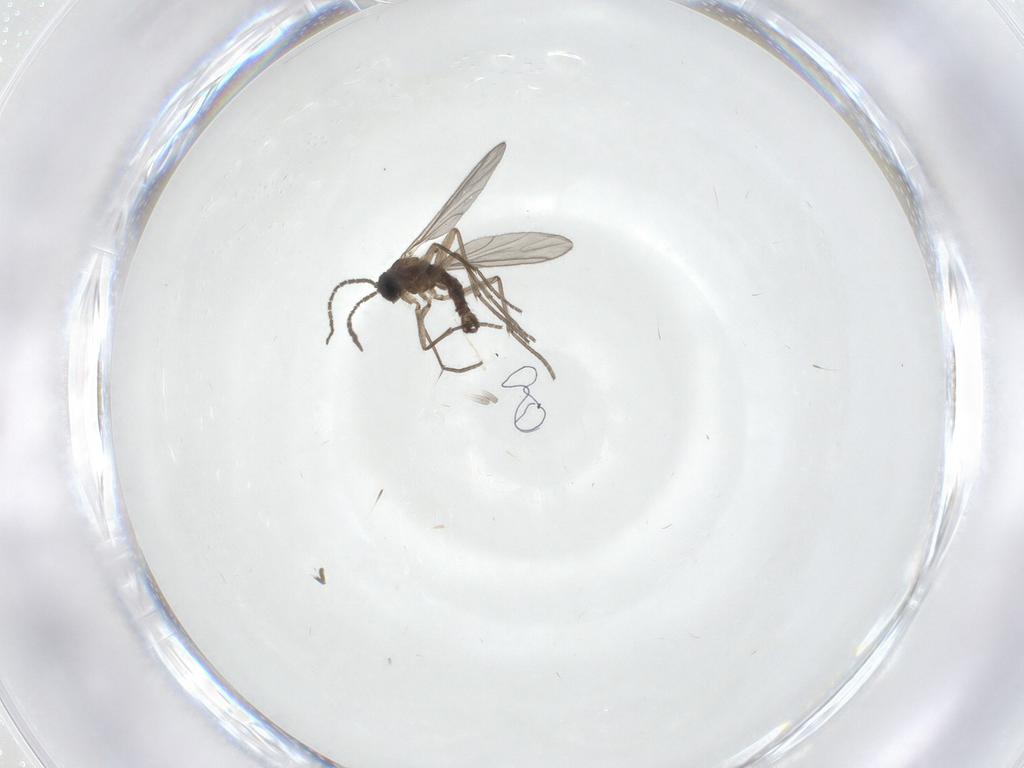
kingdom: Animalia
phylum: Arthropoda
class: Insecta
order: Diptera
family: Sciaridae
